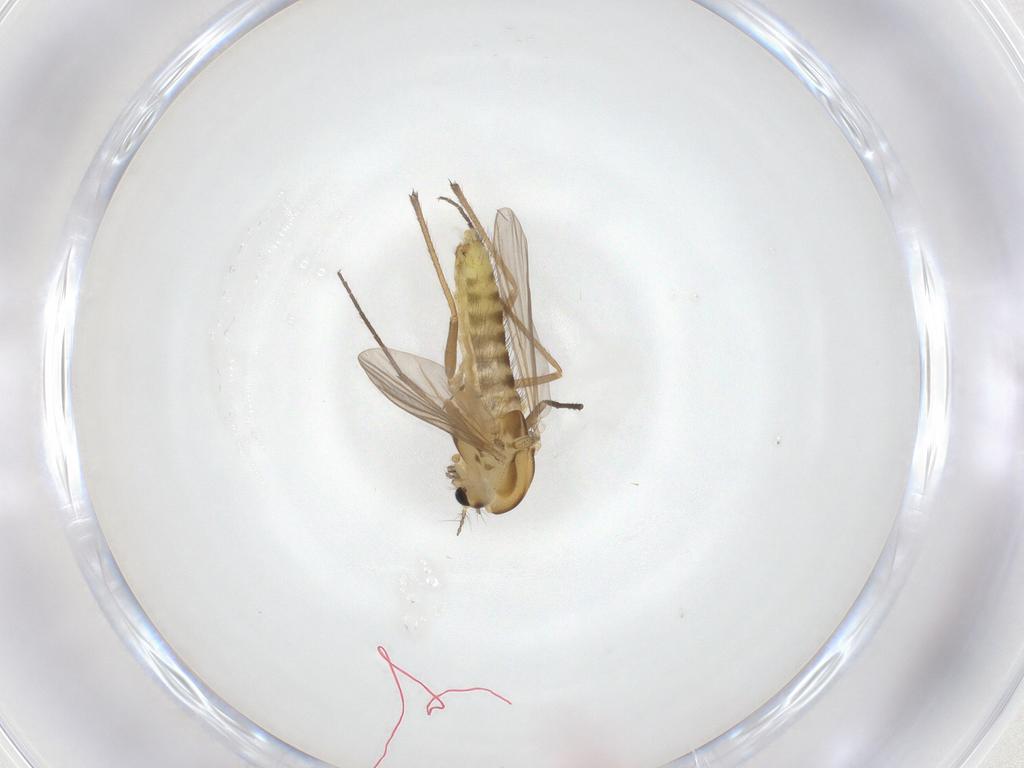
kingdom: Animalia
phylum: Arthropoda
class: Insecta
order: Diptera
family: Chironomidae
